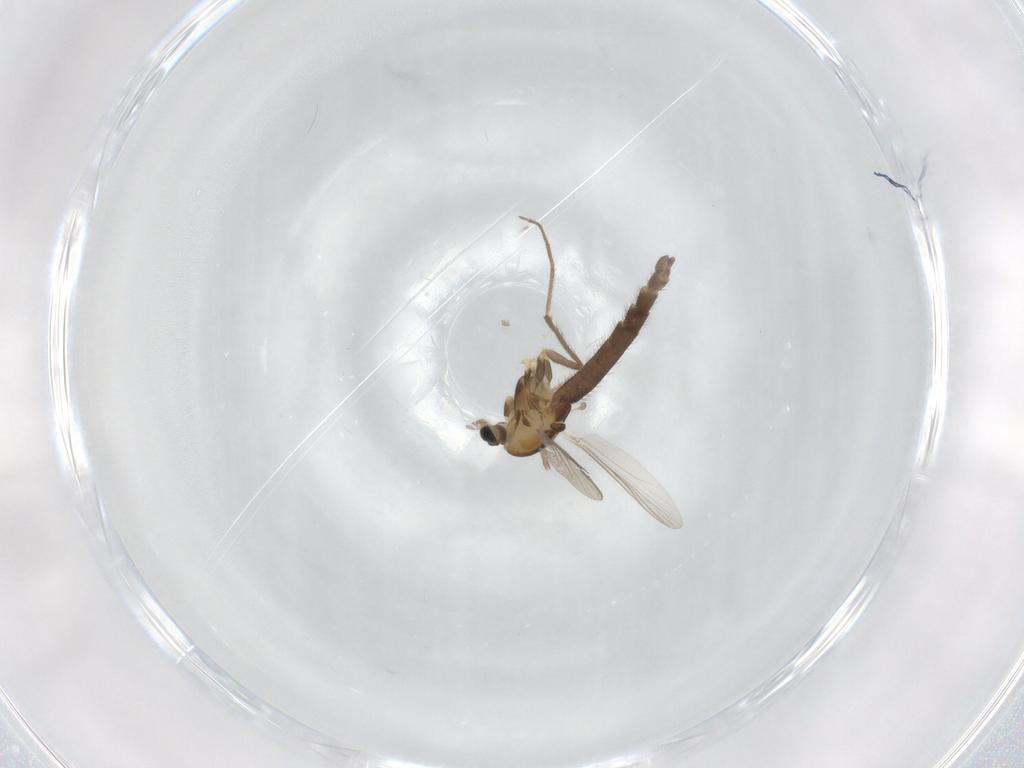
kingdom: Animalia
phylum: Arthropoda
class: Insecta
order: Diptera
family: Chironomidae
